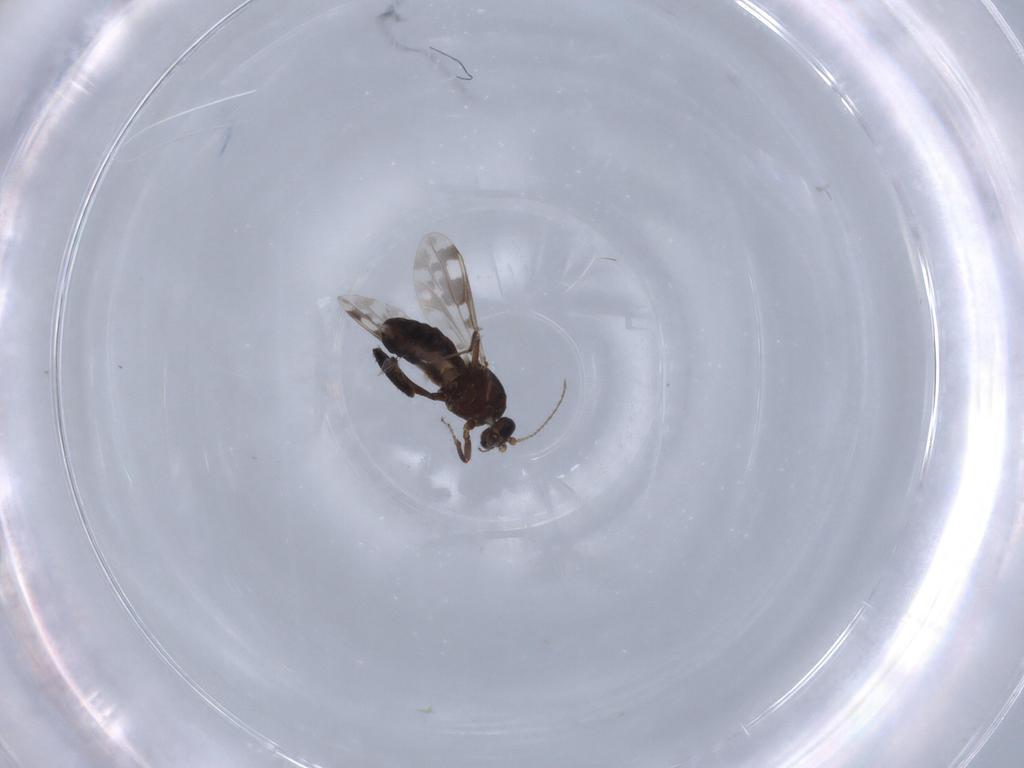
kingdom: Animalia
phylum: Arthropoda
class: Insecta
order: Diptera
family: Ceratopogonidae
